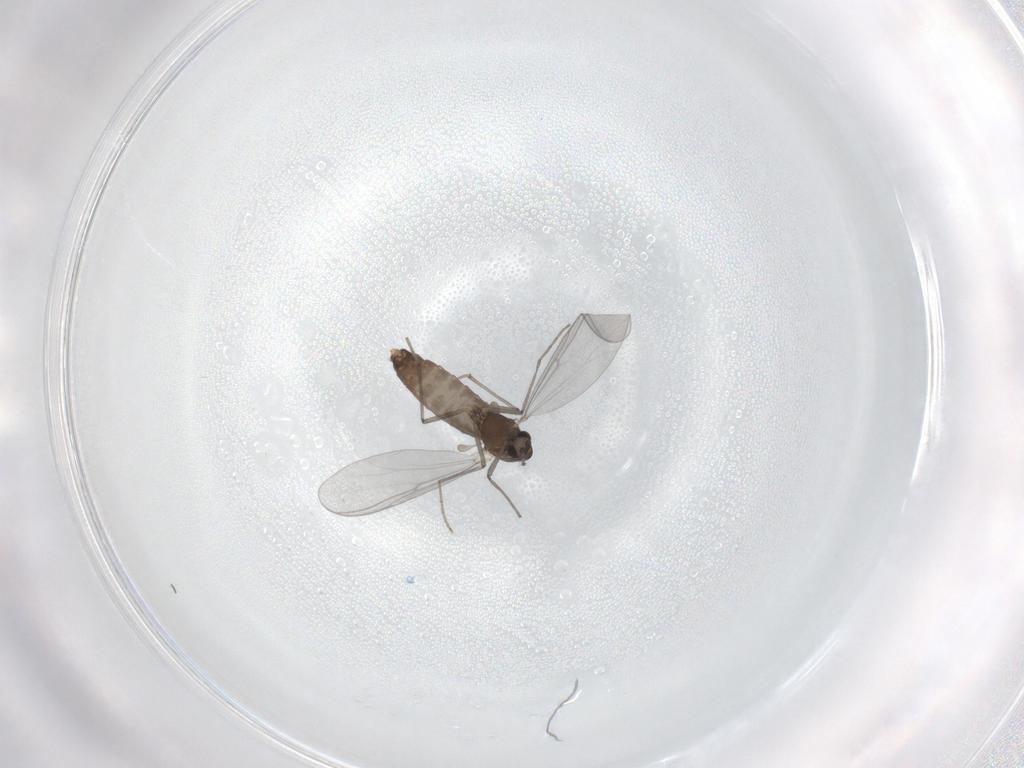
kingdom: Animalia
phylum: Arthropoda
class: Insecta
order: Diptera
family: Chironomidae
